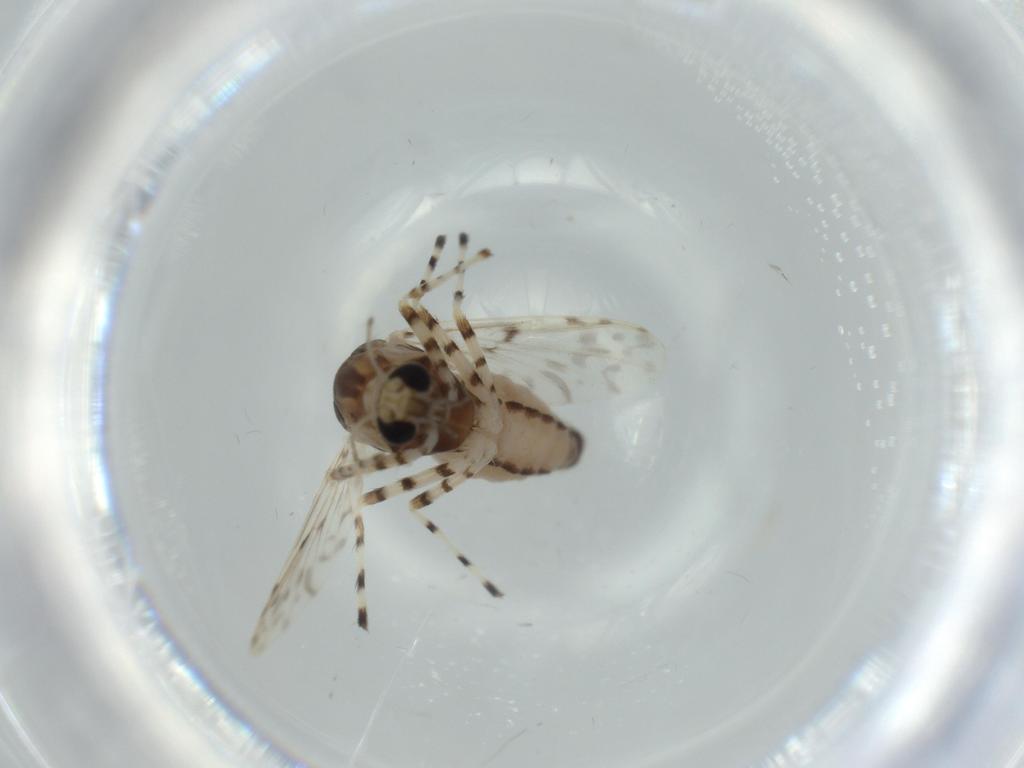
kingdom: Animalia
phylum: Arthropoda
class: Insecta
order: Diptera
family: Chironomidae
